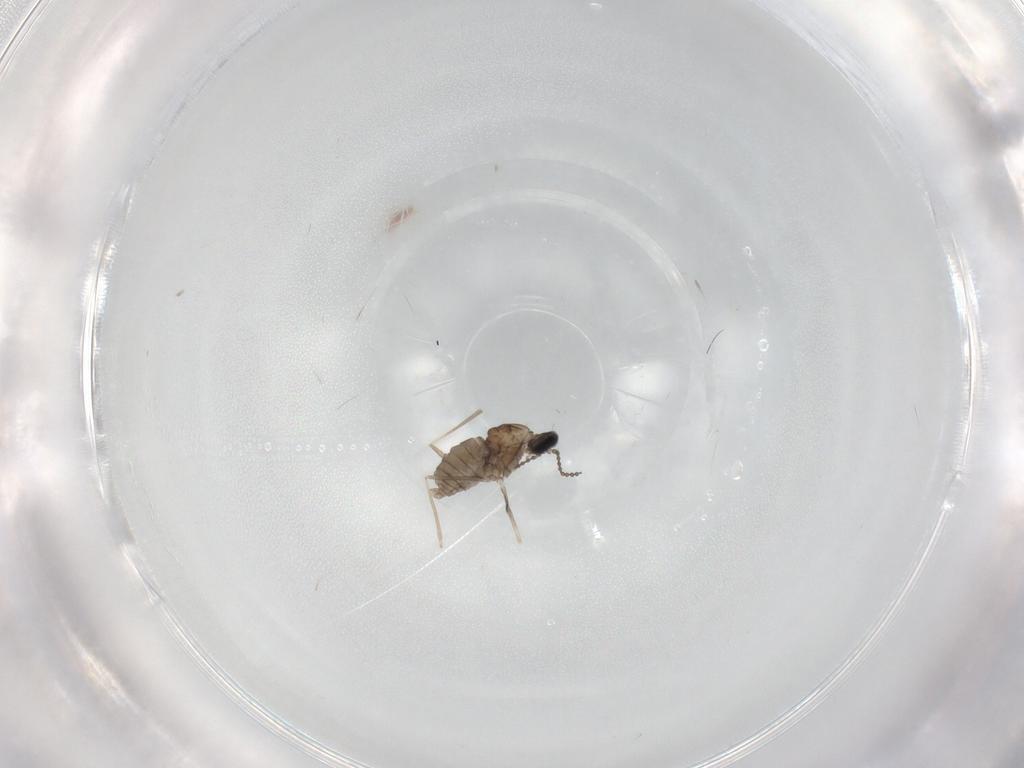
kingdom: Animalia
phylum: Arthropoda
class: Insecta
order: Diptera
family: Cecidomyiidae
